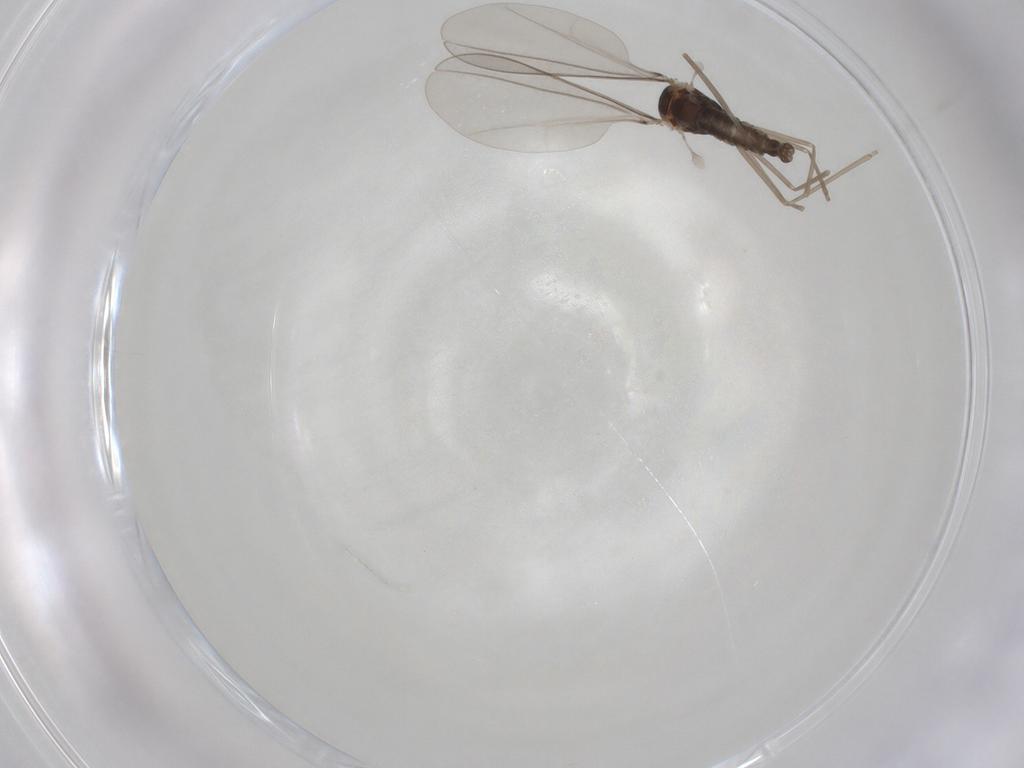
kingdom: Animalia
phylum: Arthropoda
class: Insecta
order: Diptera
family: Cecidomyiidae
